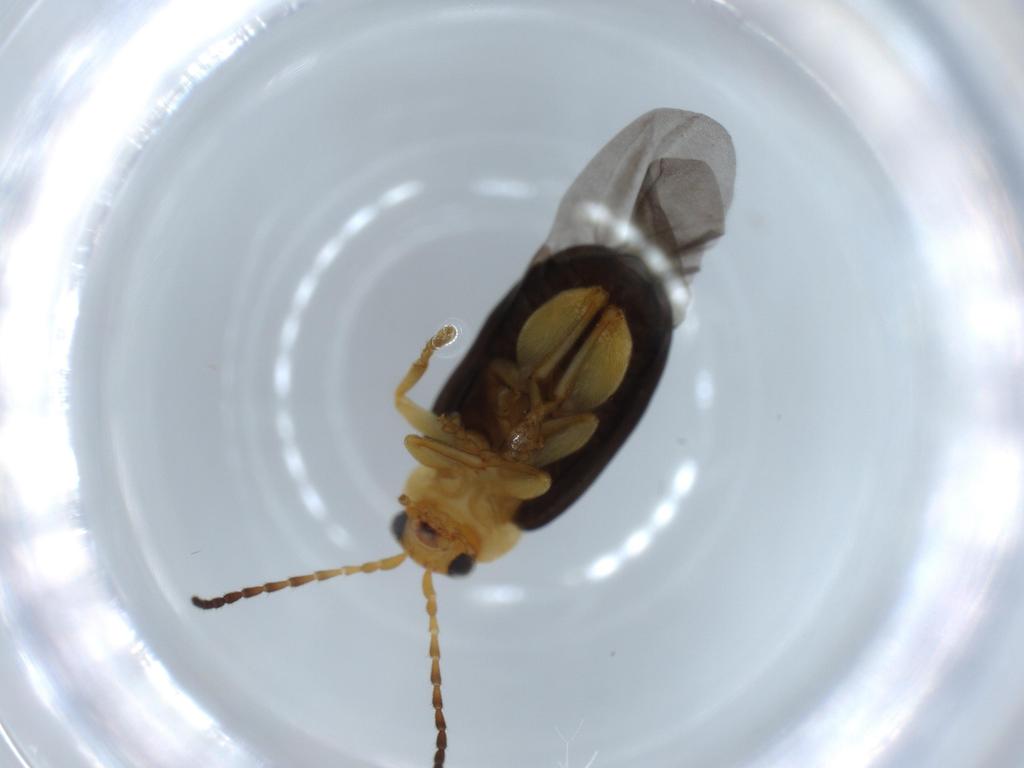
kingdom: Animalia
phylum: Arthropoda
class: Insecta
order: Coleoptera
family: Chrysomelidae
